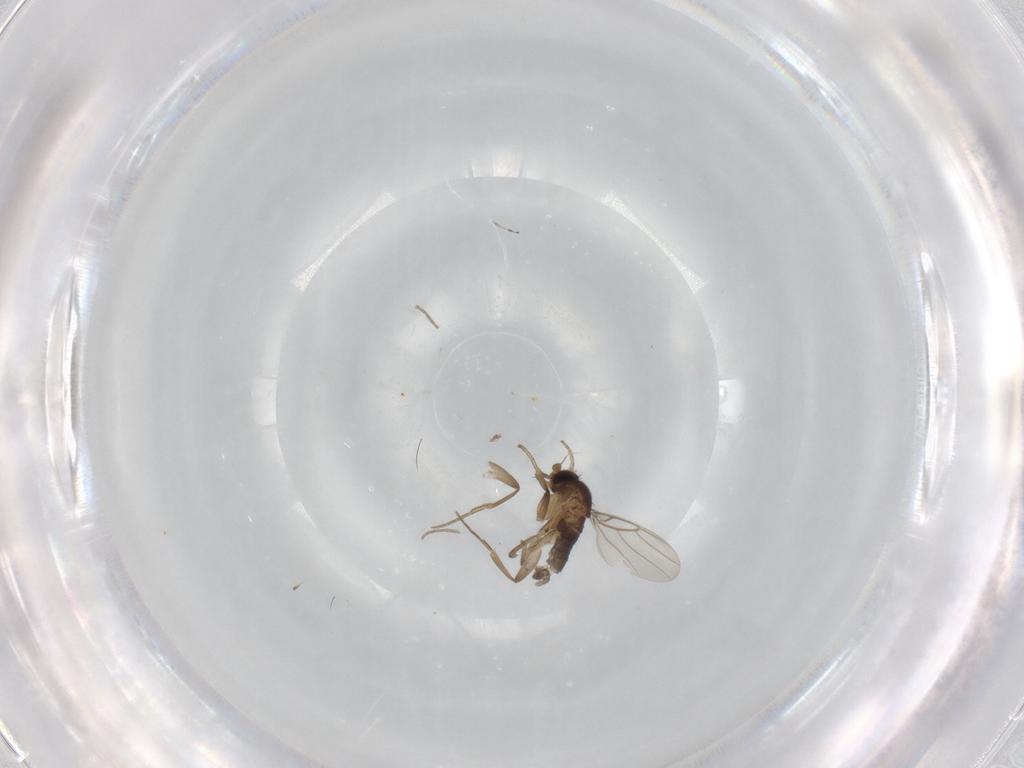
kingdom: Animalia
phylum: Arthropoda
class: Insecta
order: Diptera
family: Phoridae
